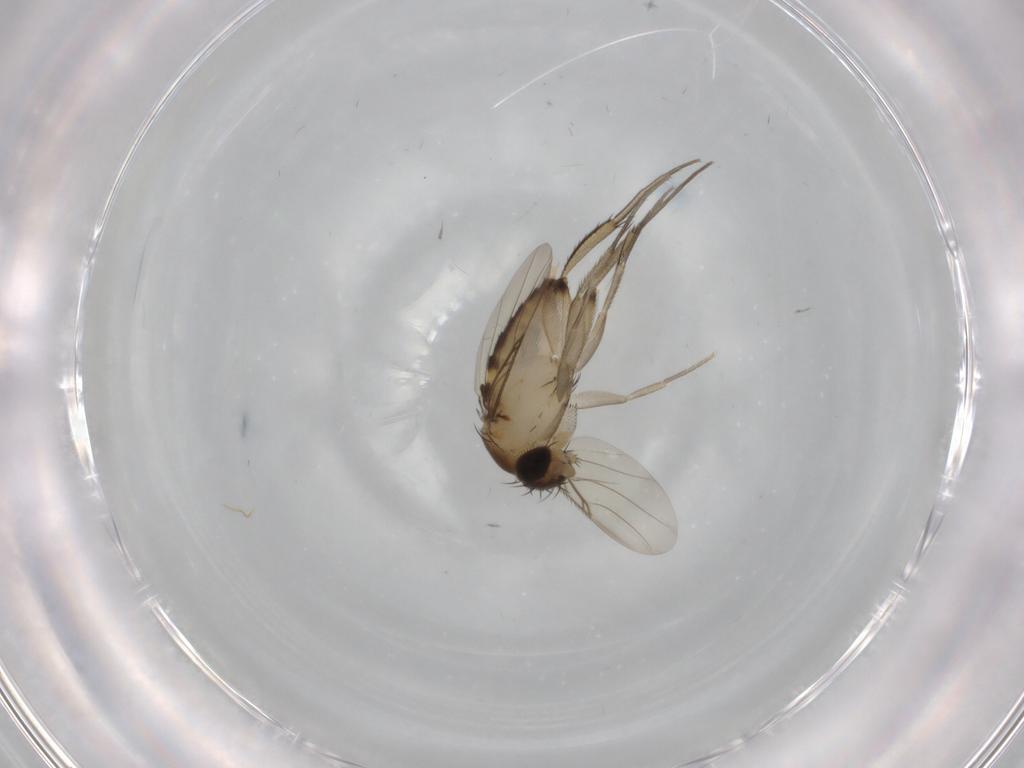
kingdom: Animalia
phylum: Arthropoda
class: Insecta
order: Diptera
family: Phoridae
